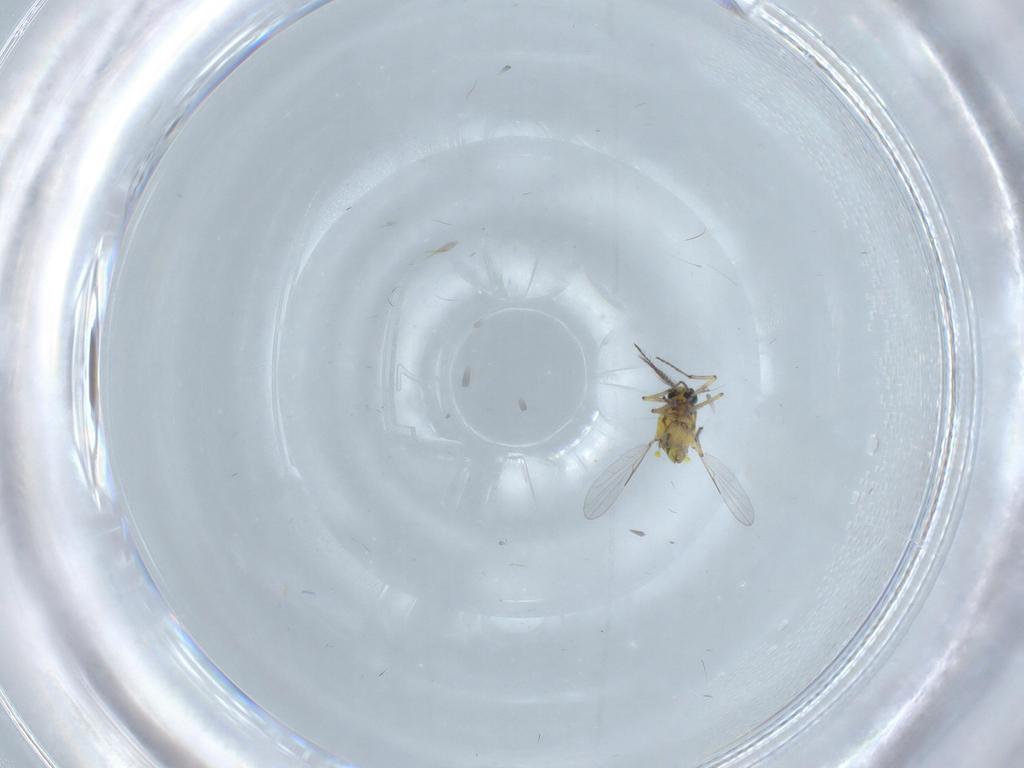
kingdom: Animalia
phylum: Arthropoda
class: Insecta
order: Diptera
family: Ceratopogonidae
